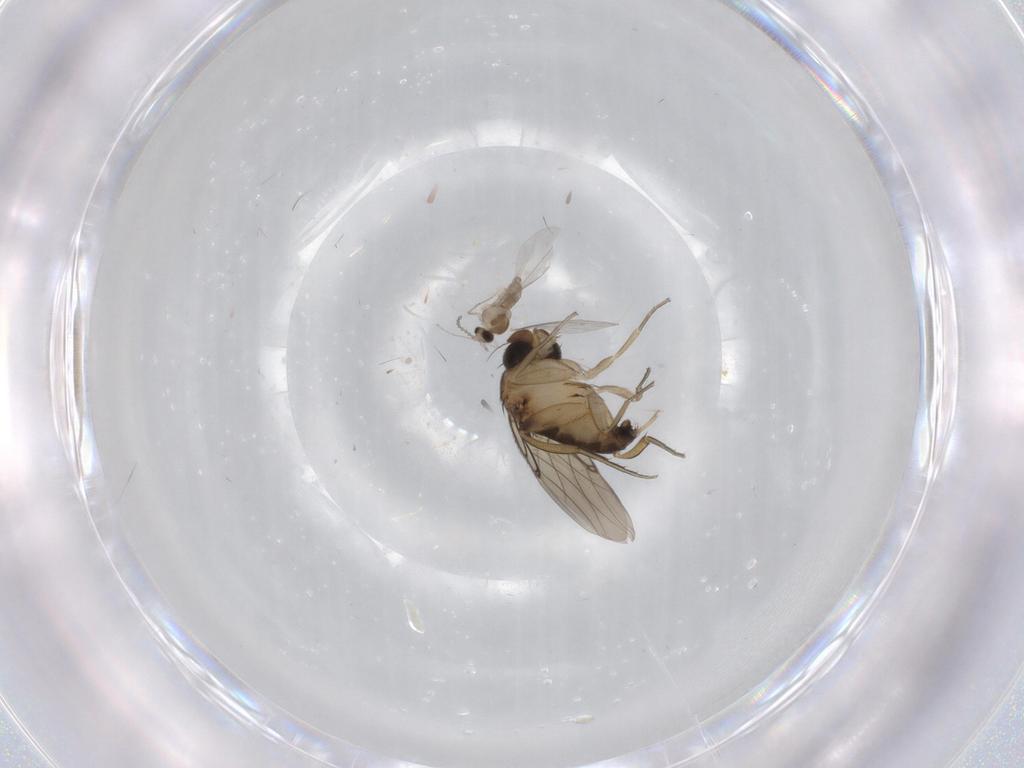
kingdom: Animalia
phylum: Arthropoda
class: Insecta
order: Diptera
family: Phoridae
